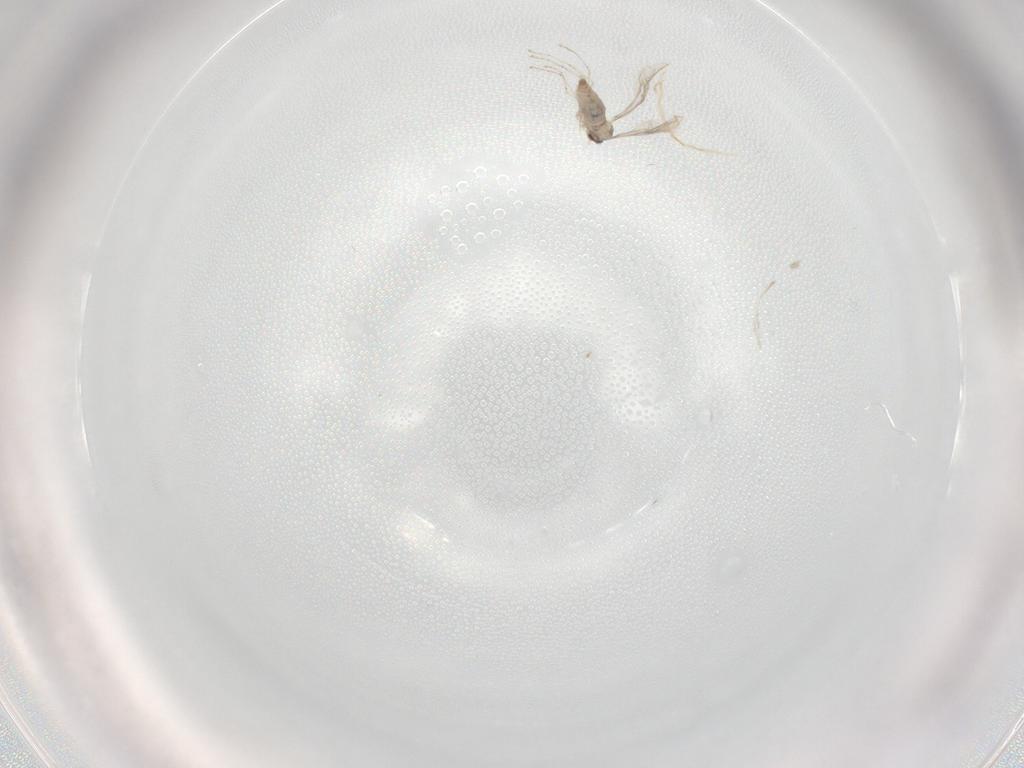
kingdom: Animalia
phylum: Arthropoda
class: Insecta
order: Diptera
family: Cecidomyiidae
